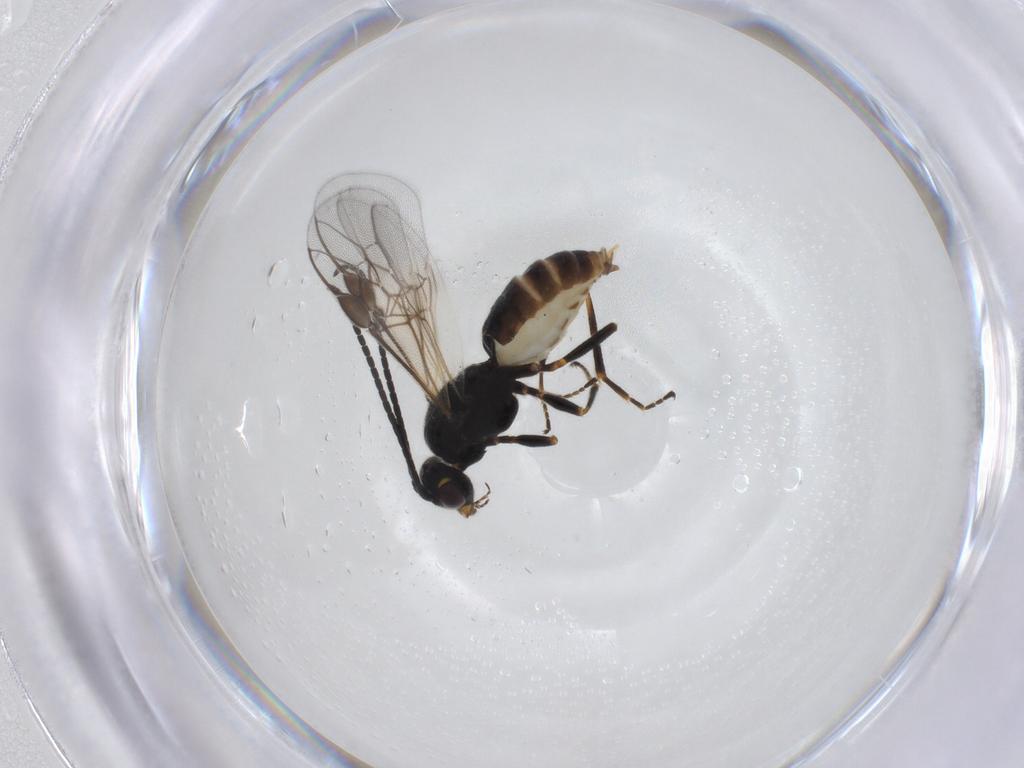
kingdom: Animalia
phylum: Arthropoda
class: Insecta
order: Hymenoptera
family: Braconidae
